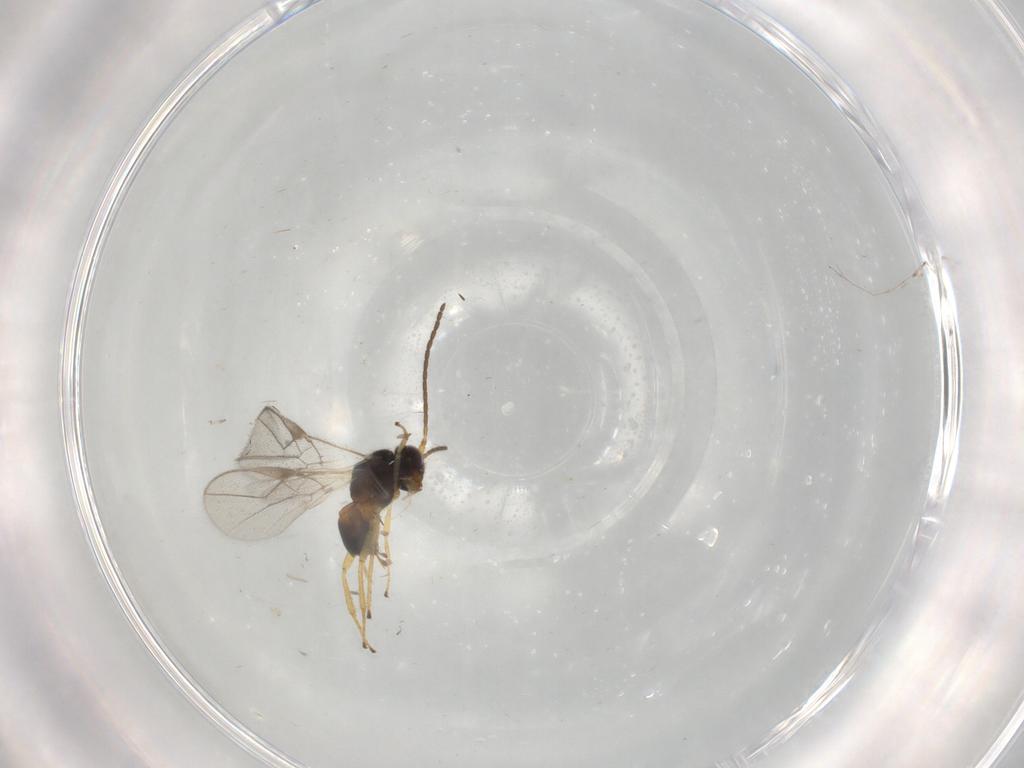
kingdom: Animalia
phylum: Arthropoda
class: Insecta
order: Hymenoptera
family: Braconidae
